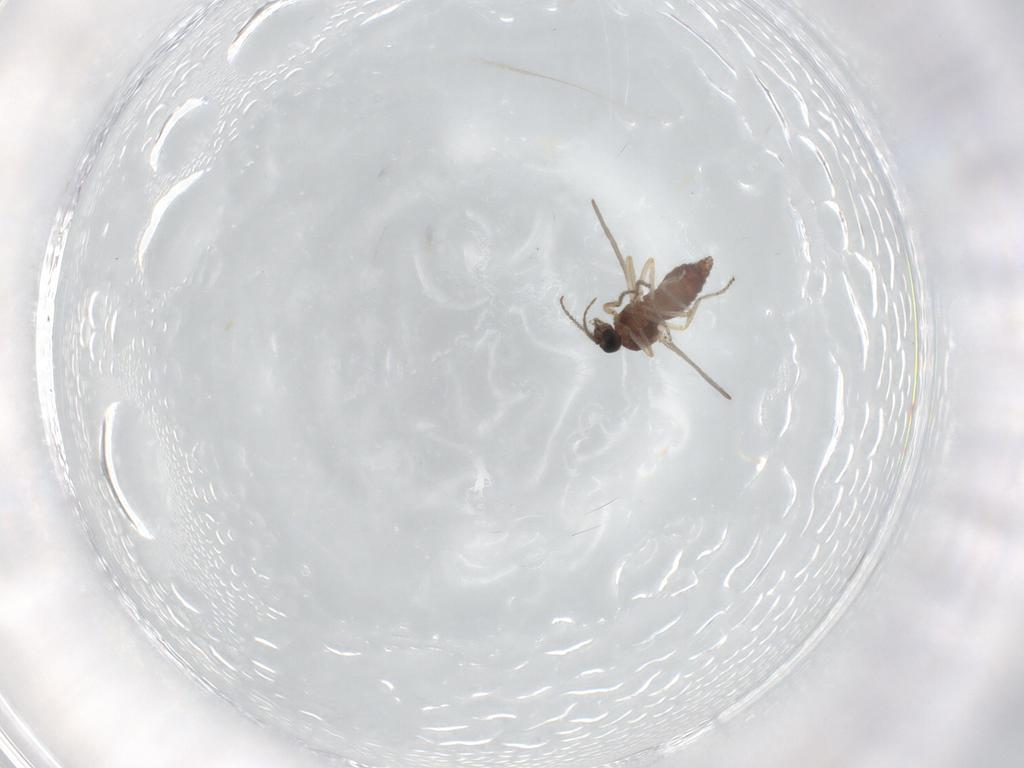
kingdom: Animalia
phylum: Arthropoda
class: Insecta
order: Diptera
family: Ceratopogonidae
